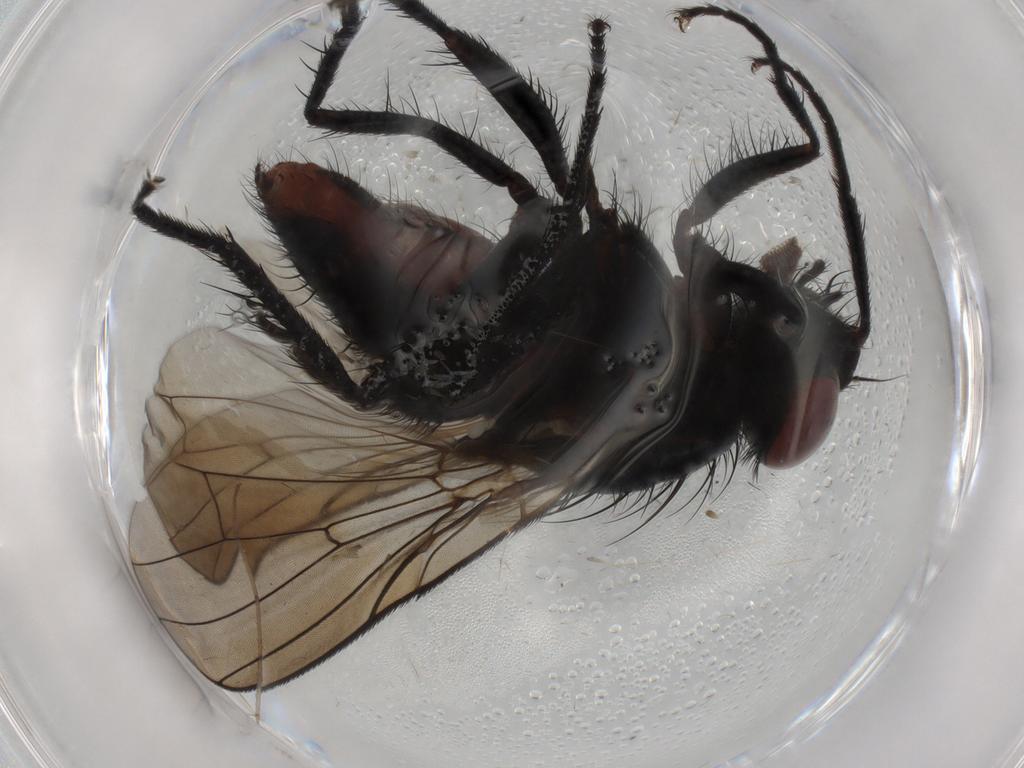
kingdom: Animalia
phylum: Arthropoda
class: Insecta
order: Diptera
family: Anthomyiidae
